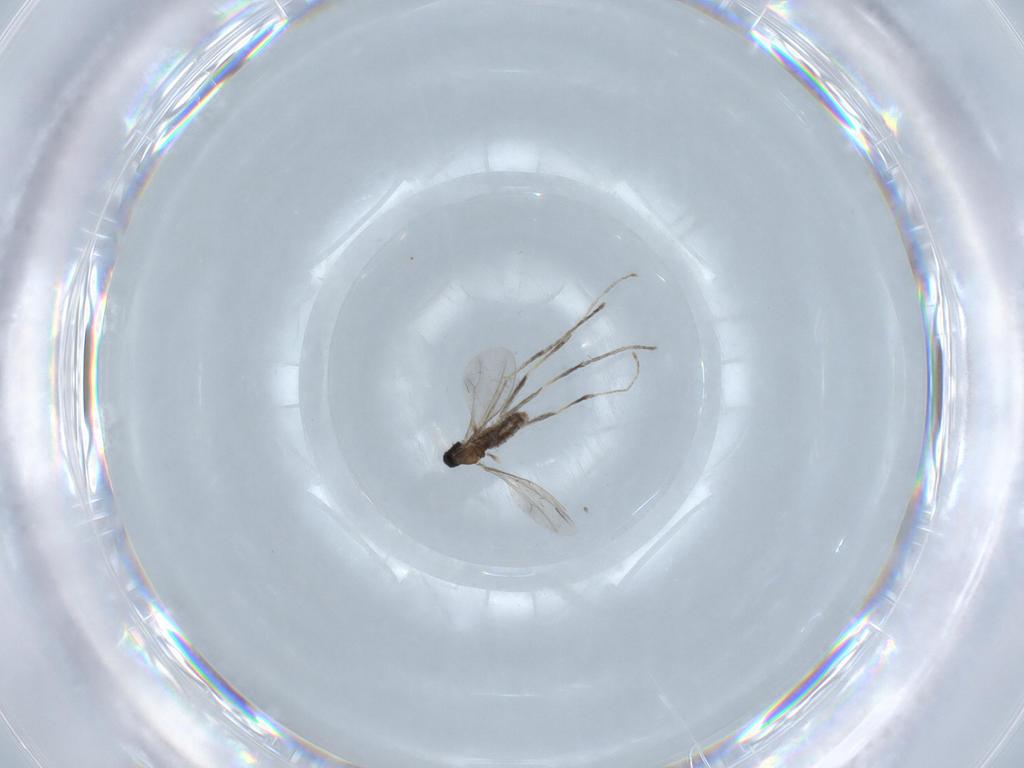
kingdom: Animalia
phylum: Arthropoda
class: Insecta
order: Diptera
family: Cecidomyiidae
